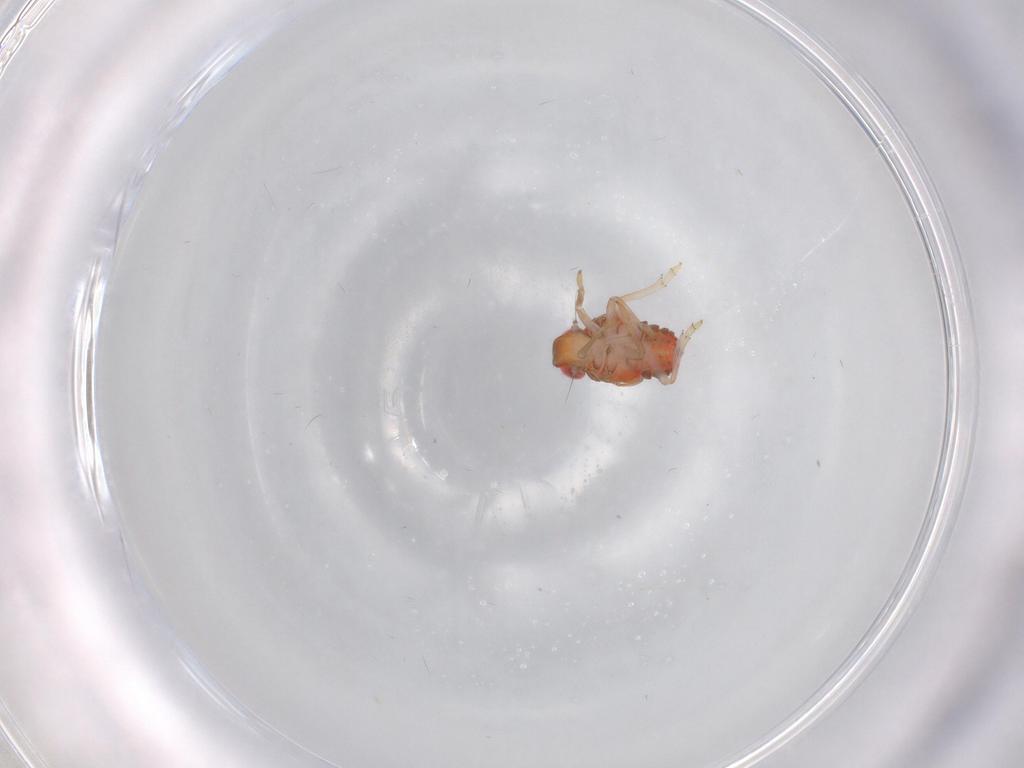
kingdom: Animalia
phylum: Arthropoda
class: Insecta
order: Hemiptera
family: Issidae
